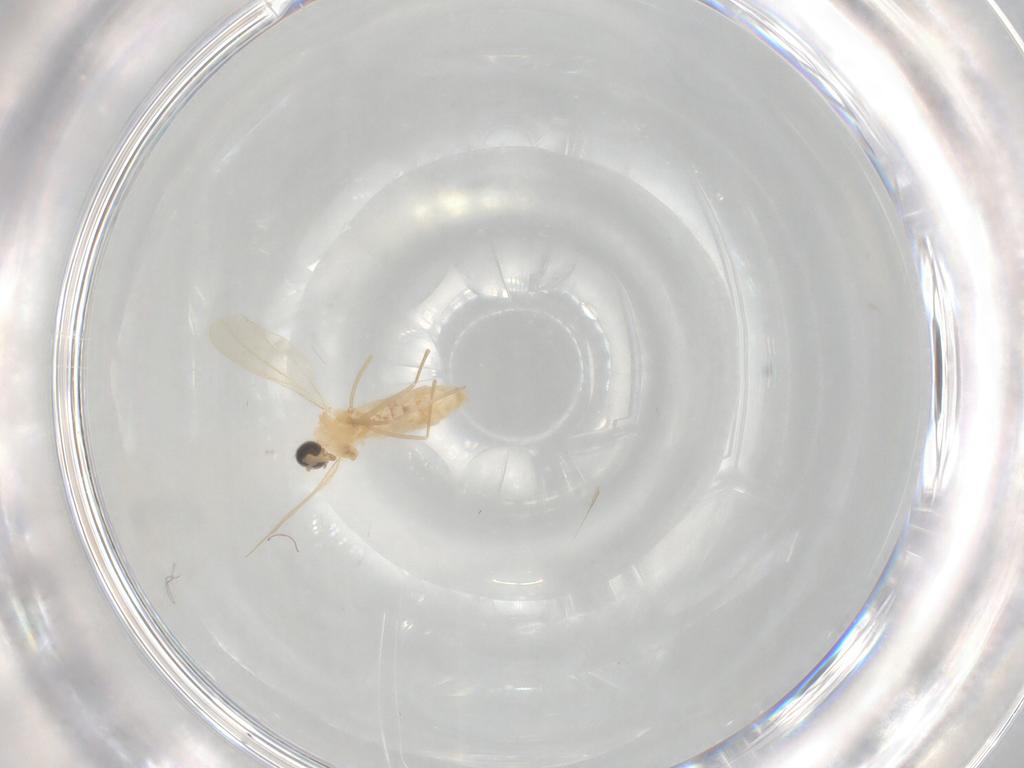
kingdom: Animalia
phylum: Arthropoda
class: Insecta
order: Diptera
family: Cecidomyiidae
